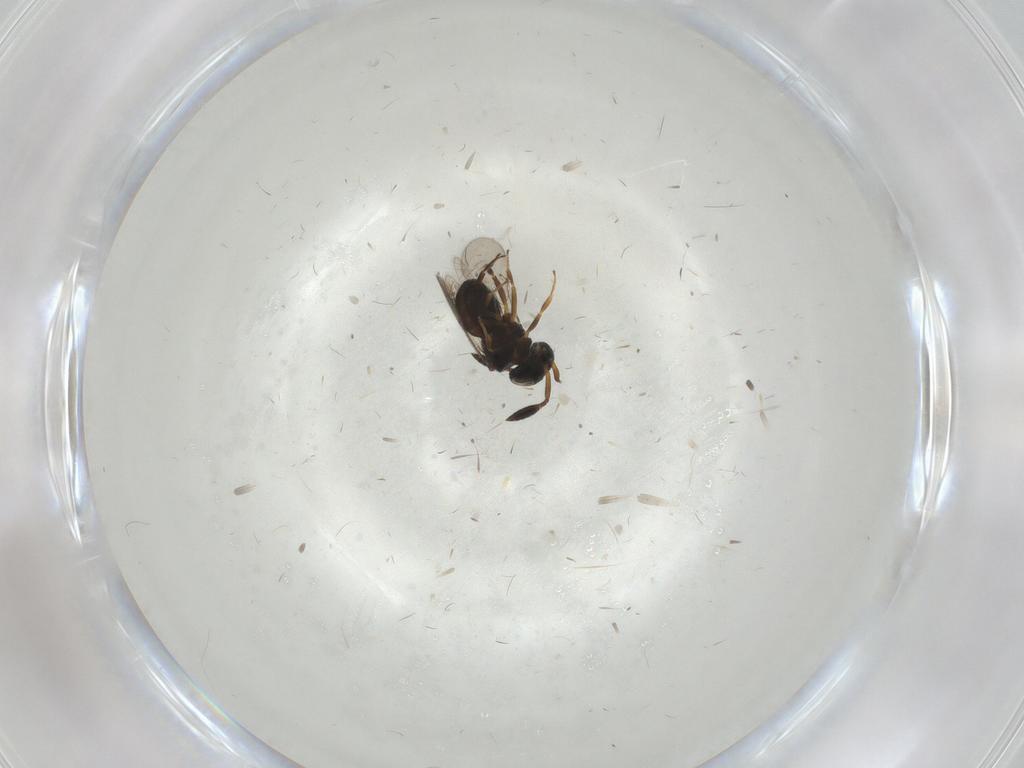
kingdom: Animalia
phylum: Arthropoda
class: Insecta
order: Hymenoptera
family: Scelionidae
